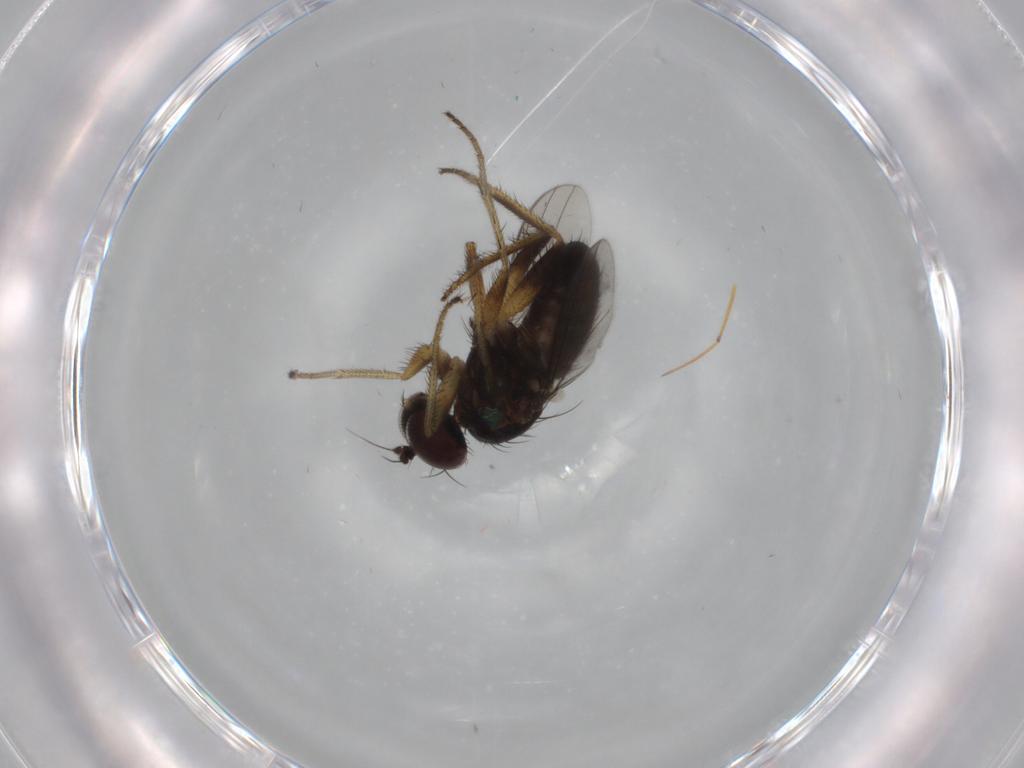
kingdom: Animalia
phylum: Arthropoda
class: Insecta
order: Diptera
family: Dolichopodidae
